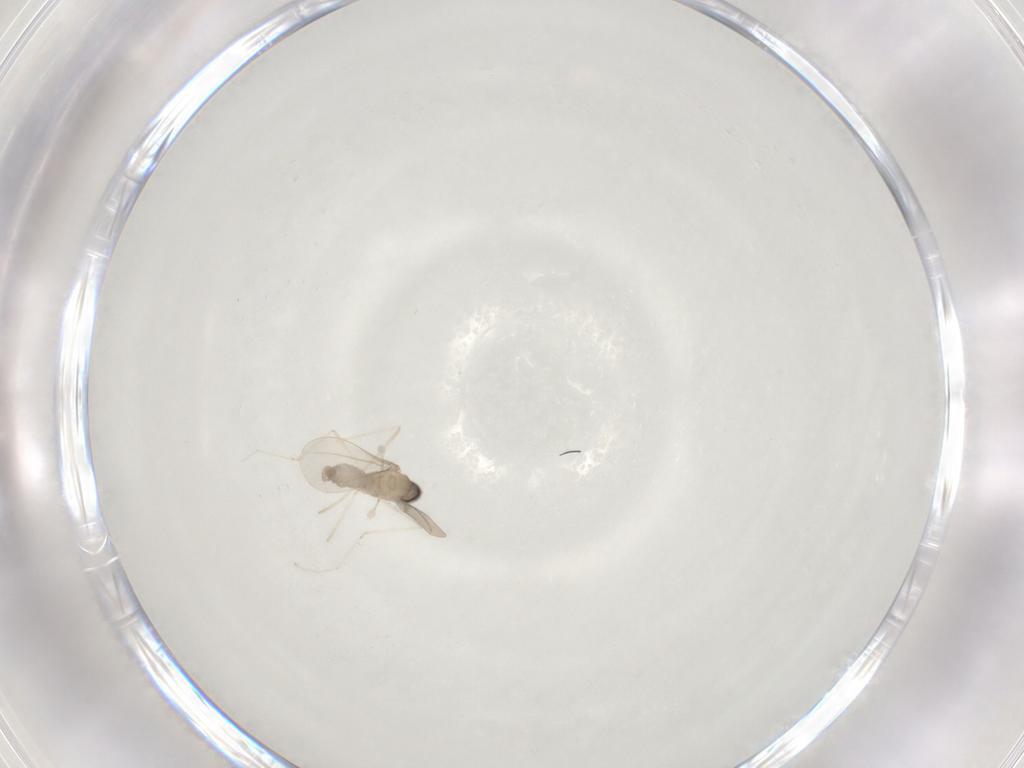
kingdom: Animalia
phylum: Arthropoda
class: Insecta
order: Diptera
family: Cecidomyiidae
